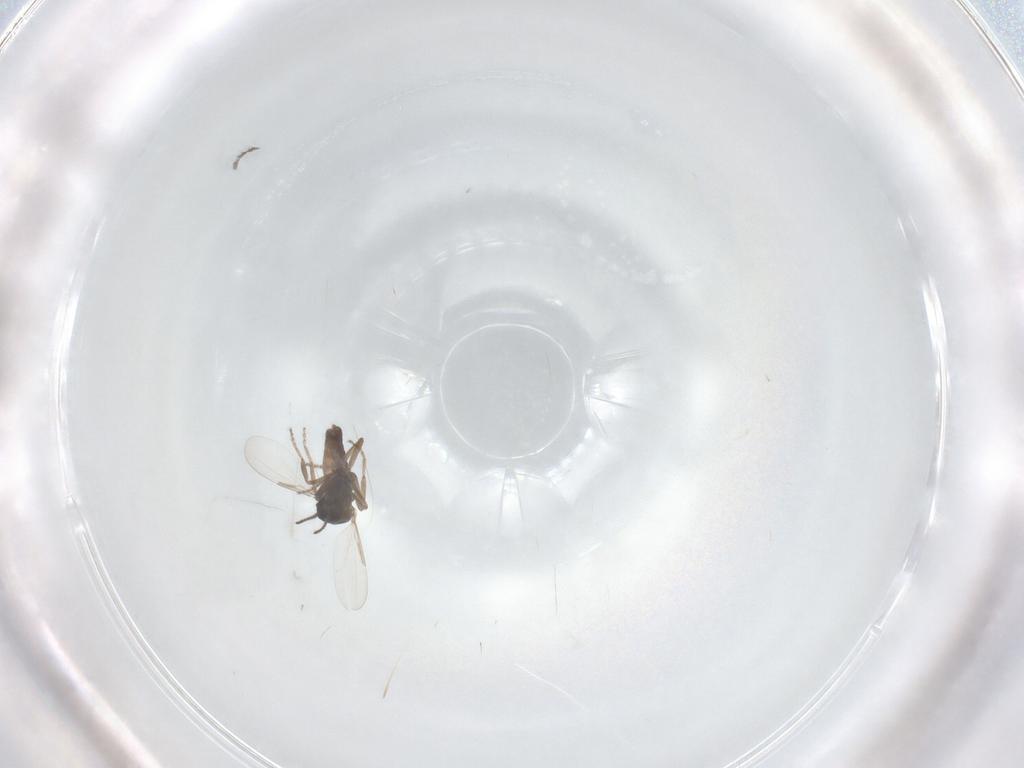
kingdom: Animalia
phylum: Arthropoda
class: Insecta
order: Diptera
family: Ceratopogonidae
